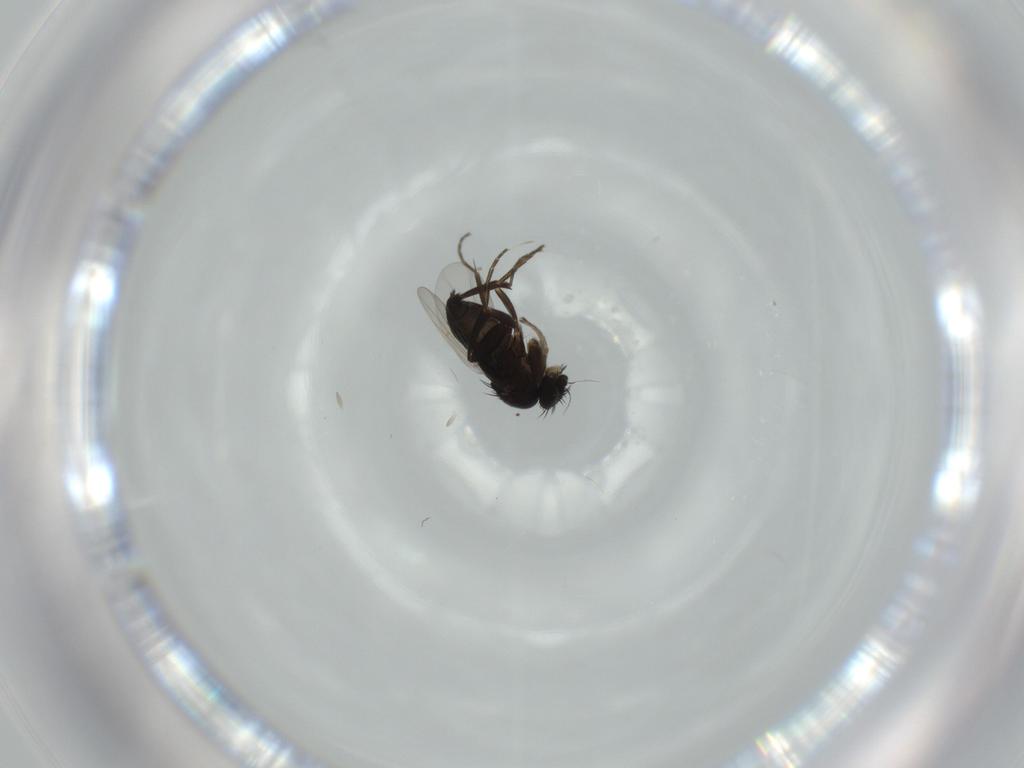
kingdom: Animalia
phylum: Arthropoda
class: Insecta
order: Diptera
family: Phoridae
